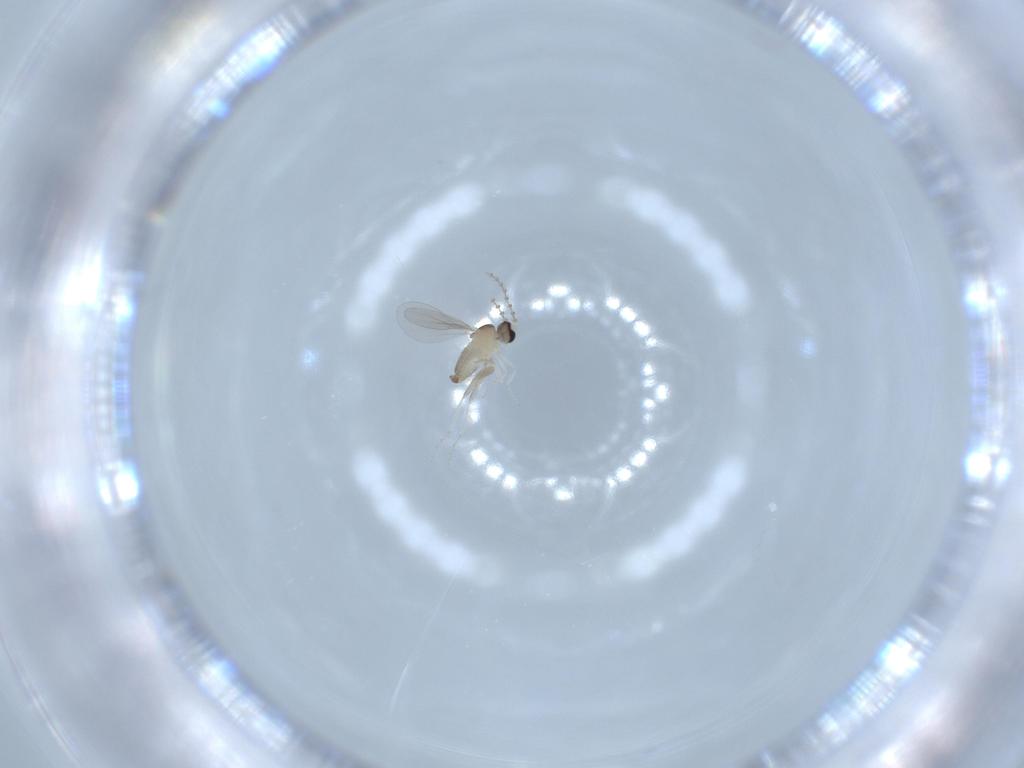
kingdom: Animalia
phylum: Arthropoda
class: Insecta
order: Diptera
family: Cecidomyiidae
